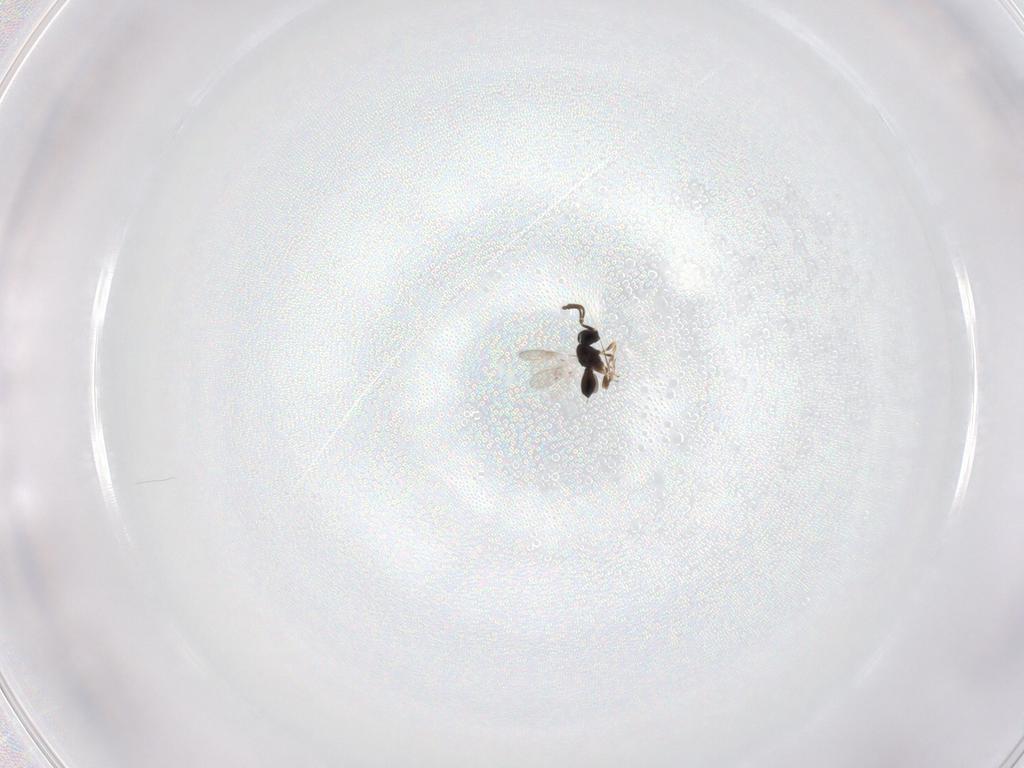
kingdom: Animalia
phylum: Arthropoda
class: Insecta
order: Hymenoptera
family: Scelionidae
